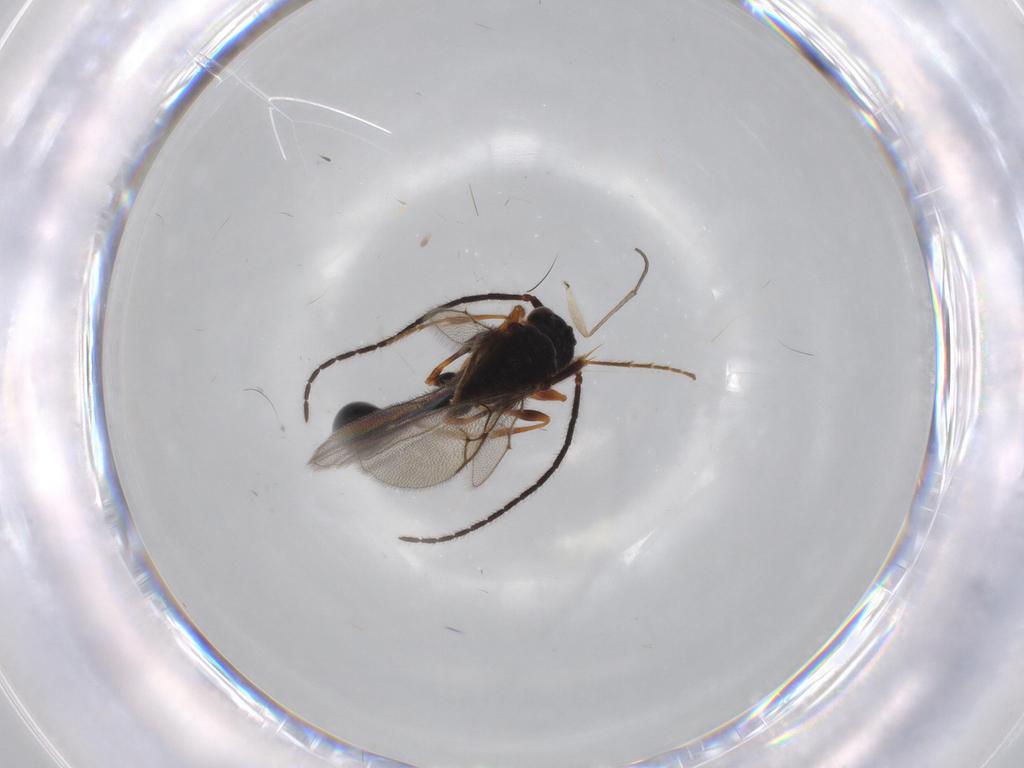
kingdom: Animalia
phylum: Arthropoda
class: Insecta
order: Hymenoptera
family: Diapriidae
